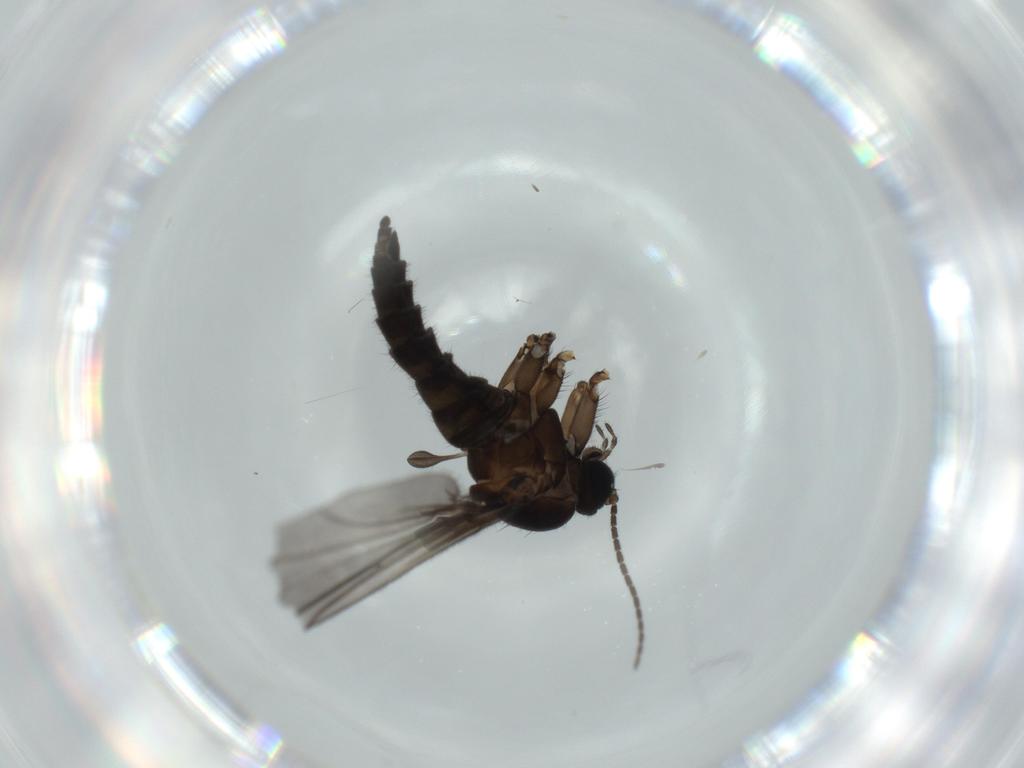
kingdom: Animalia
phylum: Arthropoda
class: Insecta
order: Diptera
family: Sciaridae
